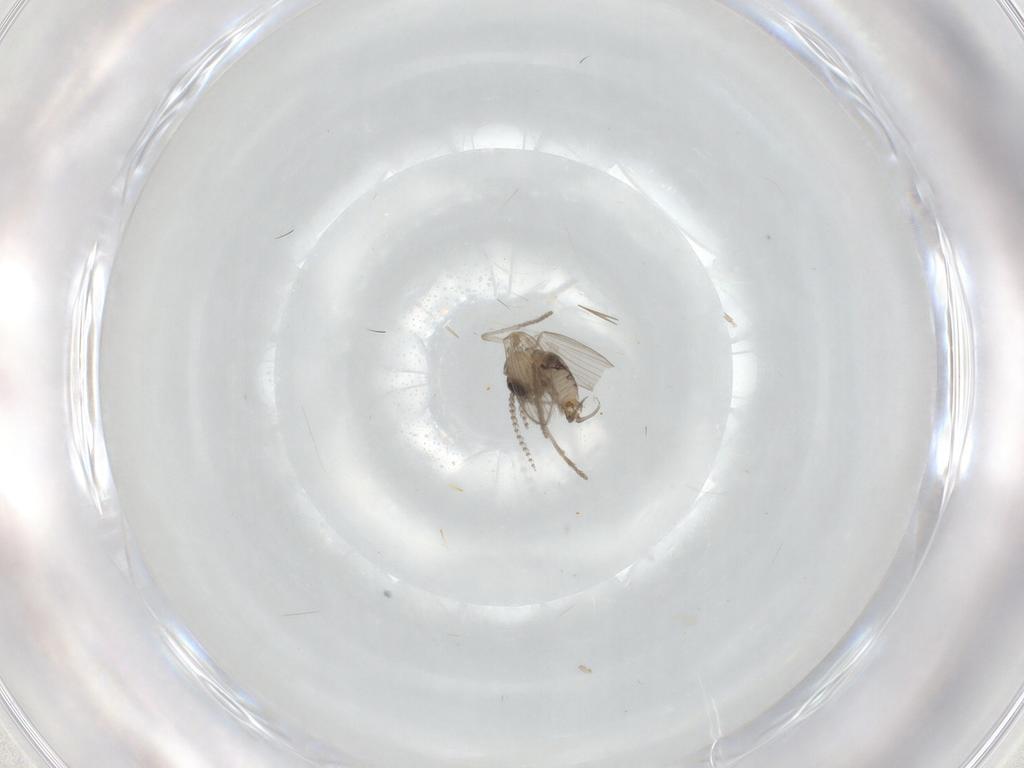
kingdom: Animalia
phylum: Arthropoda
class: Insecta
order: Diptera
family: Psychodidae
